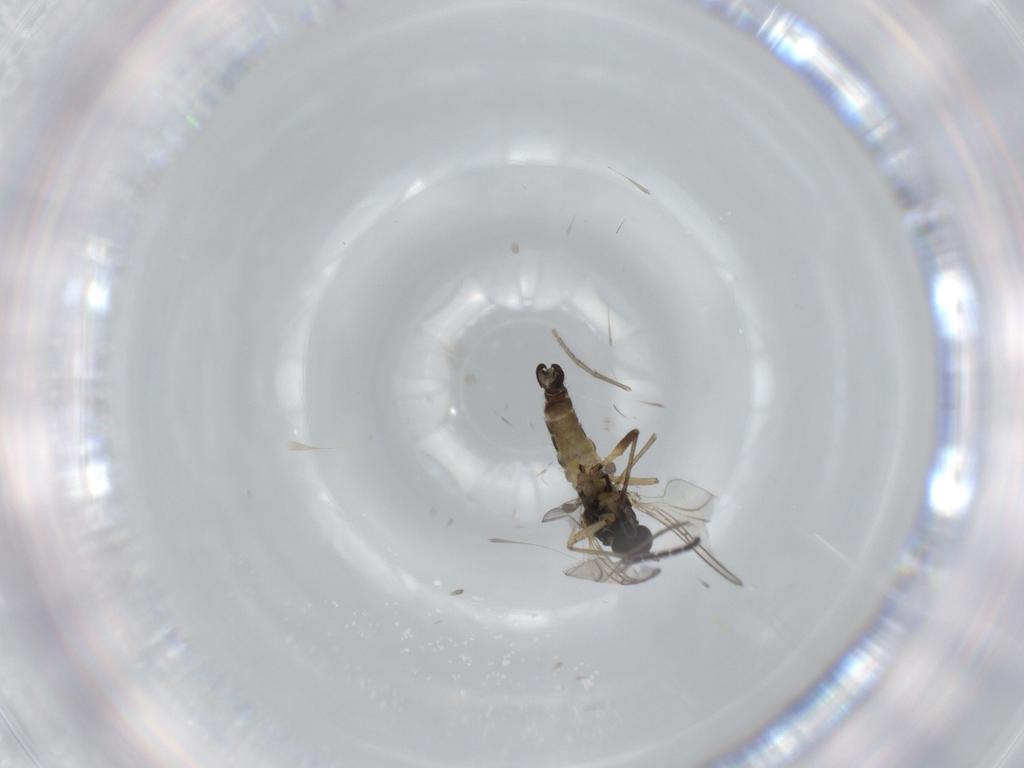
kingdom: Animalia
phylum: Arthropoda
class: Insecta
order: Diptera
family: Sciaridae
